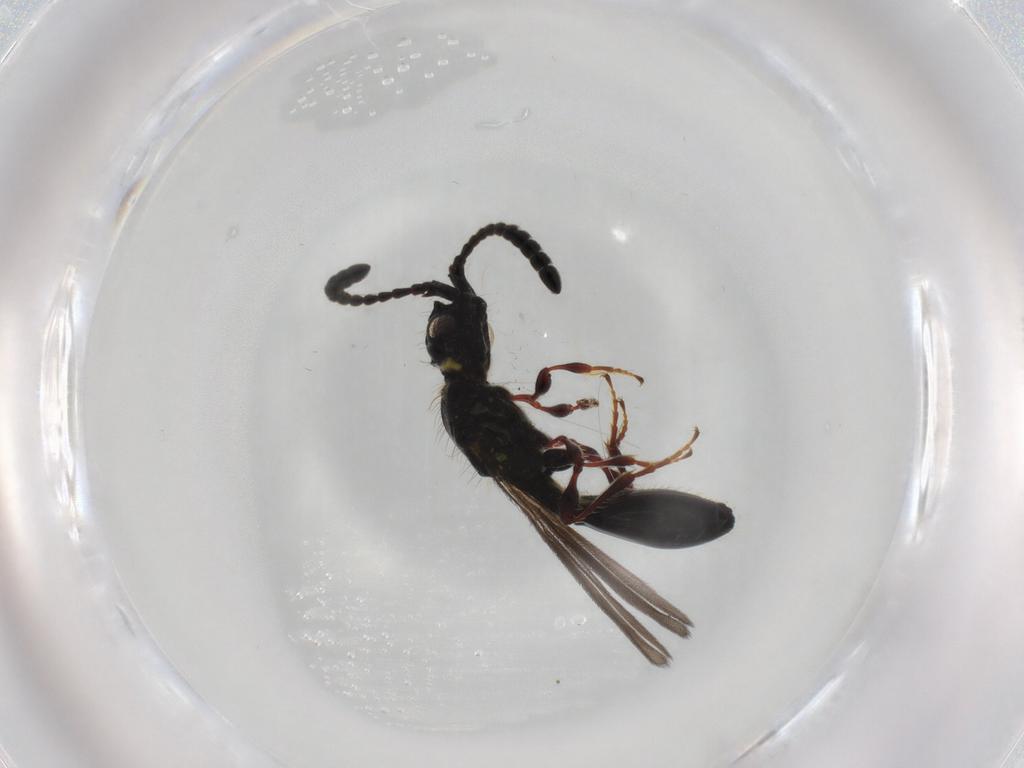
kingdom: Animalia
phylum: Arthropoda
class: Insecta
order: Hymenoptera
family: Diapriidae
